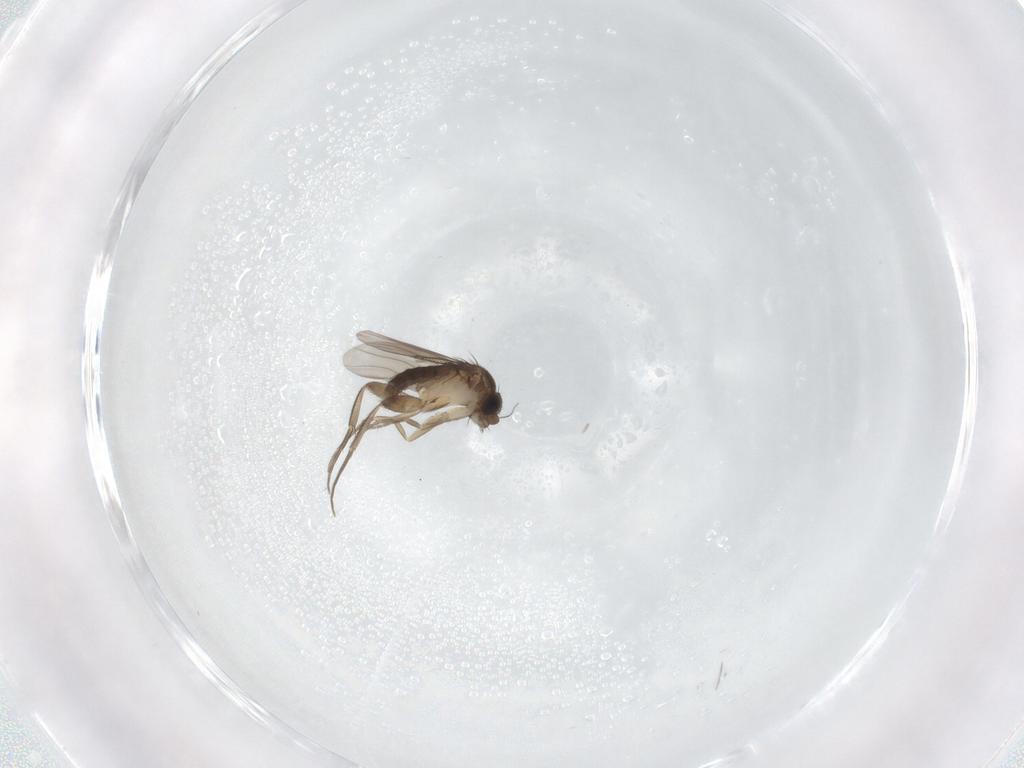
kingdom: Animalia
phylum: Arthropoda
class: Insecta
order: Diptera
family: Phoridae
